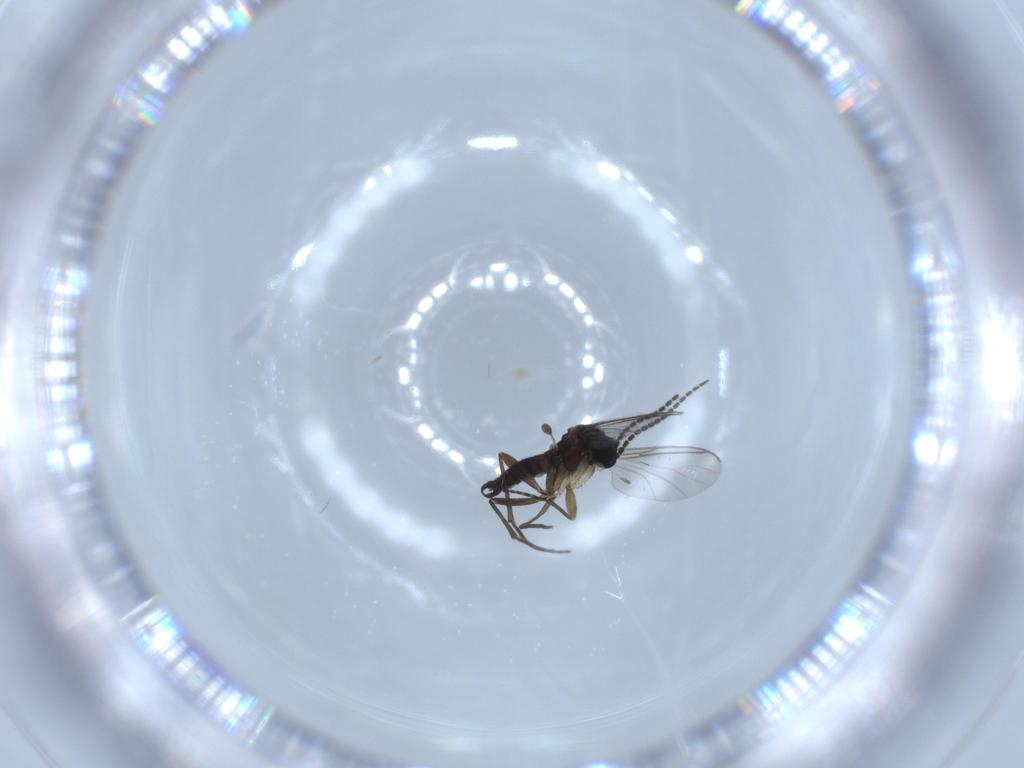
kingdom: Animalia
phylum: Arthropoda
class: Insecta
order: Diptera
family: Sciaridae
